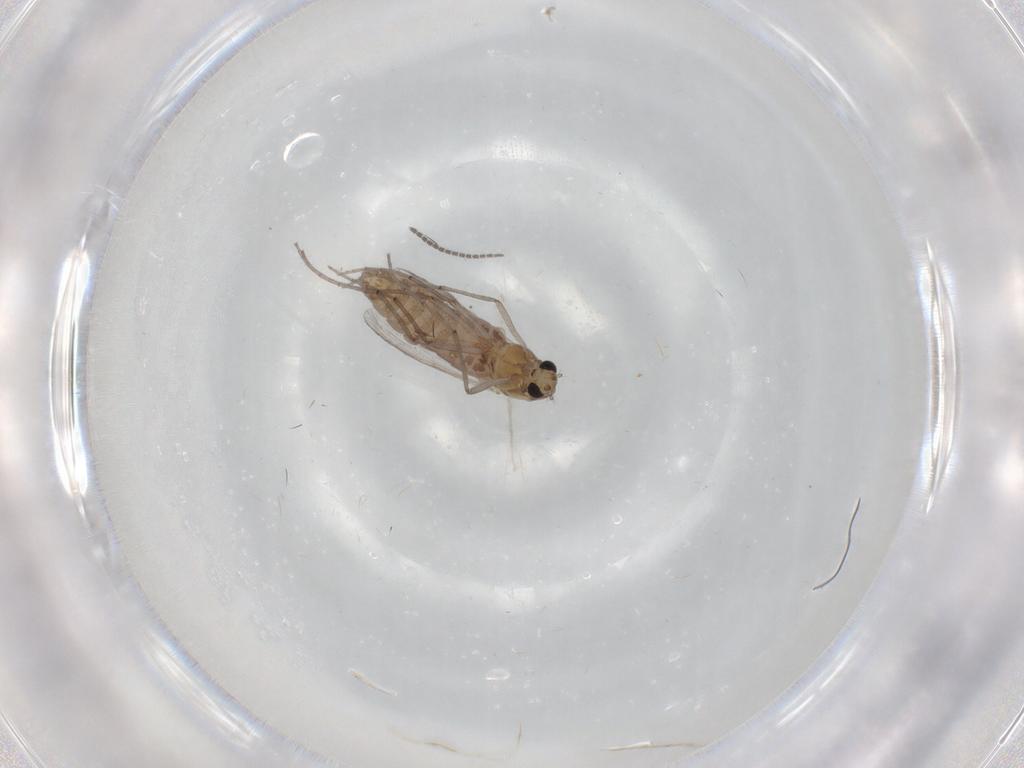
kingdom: Animalia
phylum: Arthropoda
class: Insecta
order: Diptera
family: Chironomidae
